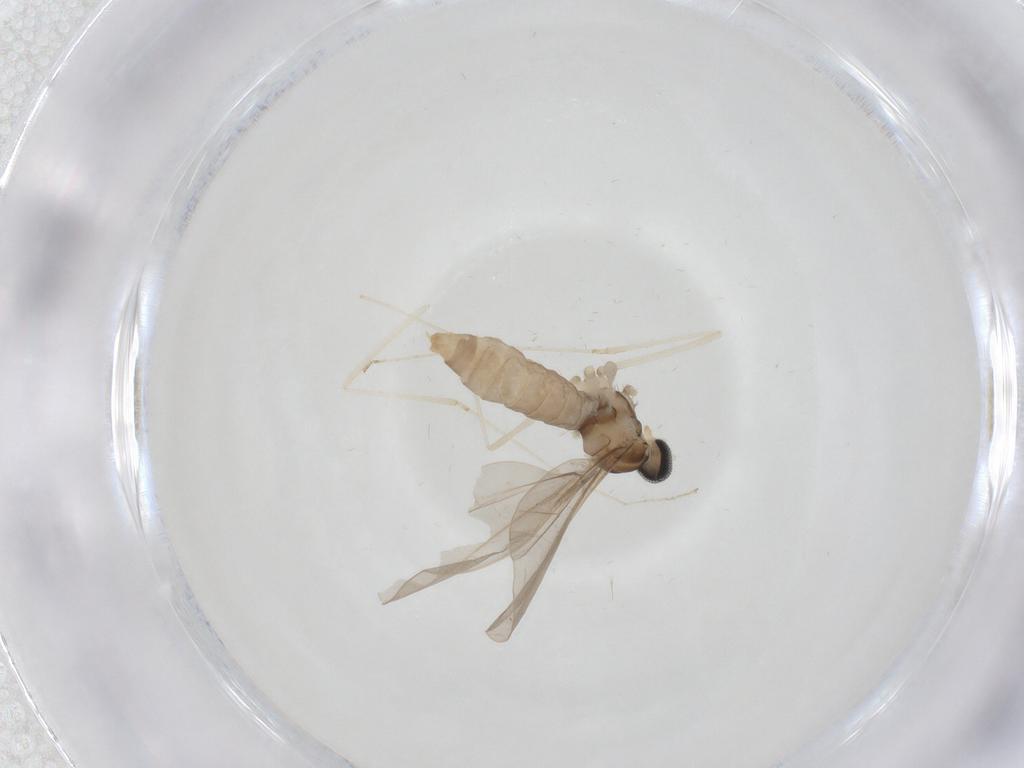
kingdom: Animalia
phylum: Arthropoda
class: Insecta
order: Diptera
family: Cecidomyiidae
